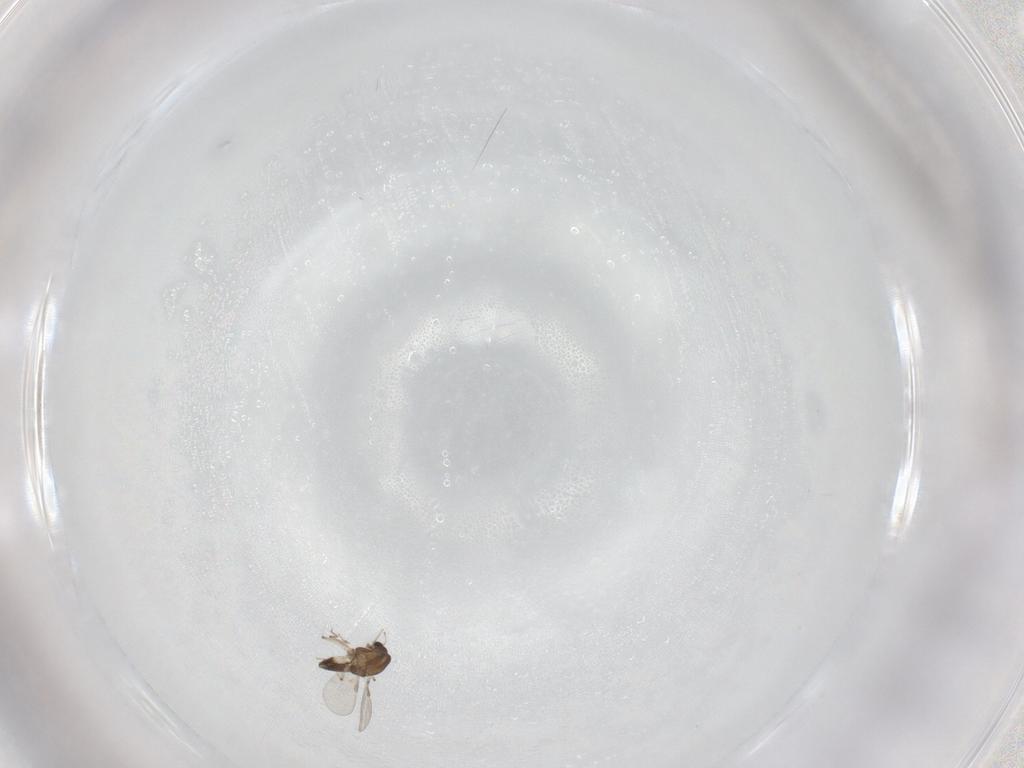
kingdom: Animalia
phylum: Arthropoda
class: Insecta
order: Diptera
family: Chironomidae
